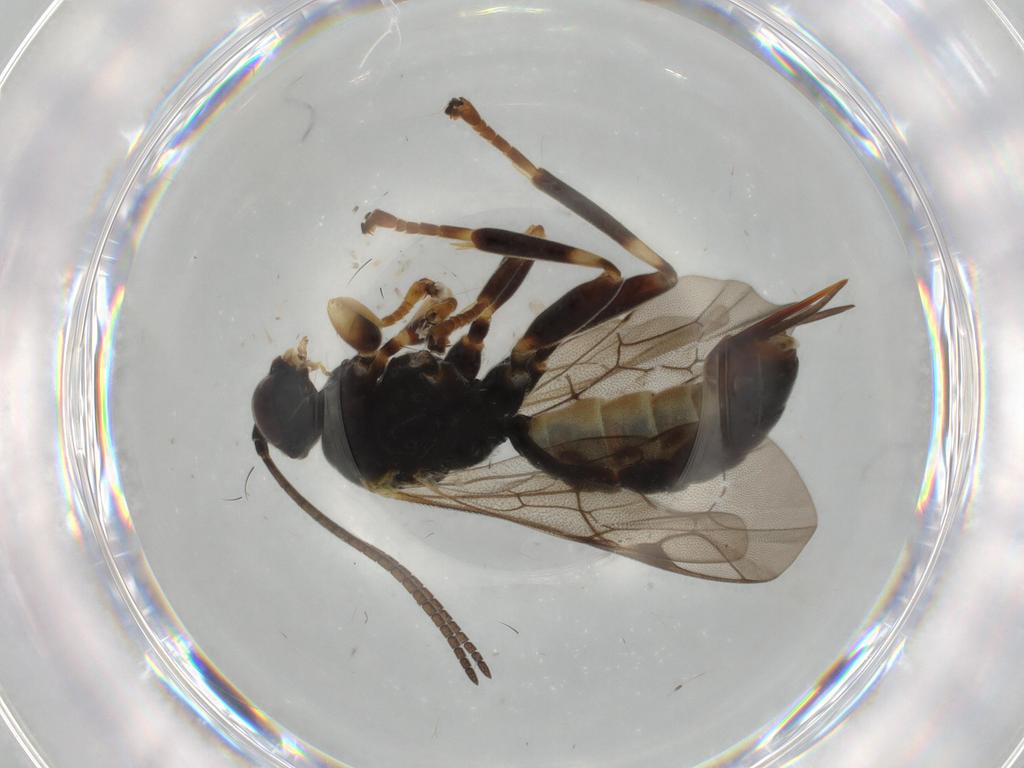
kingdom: Animalia
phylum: Arthropoda
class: Insecta
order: Hymenoptera
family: Ichneumonidae
